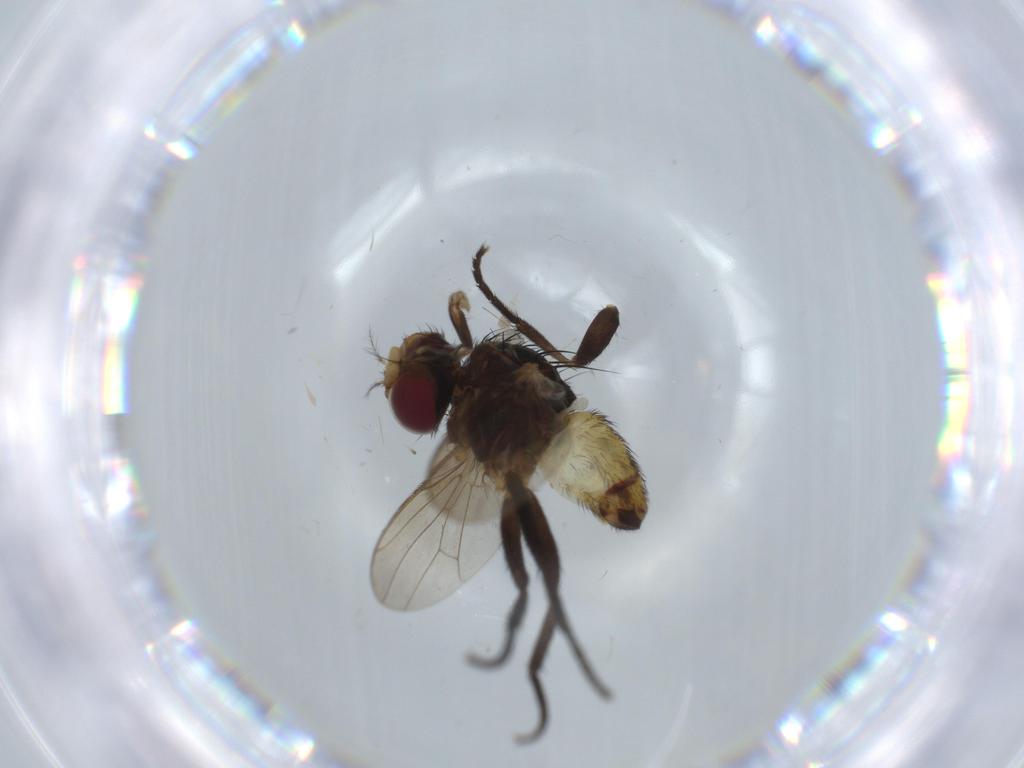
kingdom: Animalia
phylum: Arthropoda
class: Insecta
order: Diptera
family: Anthomyiidae
